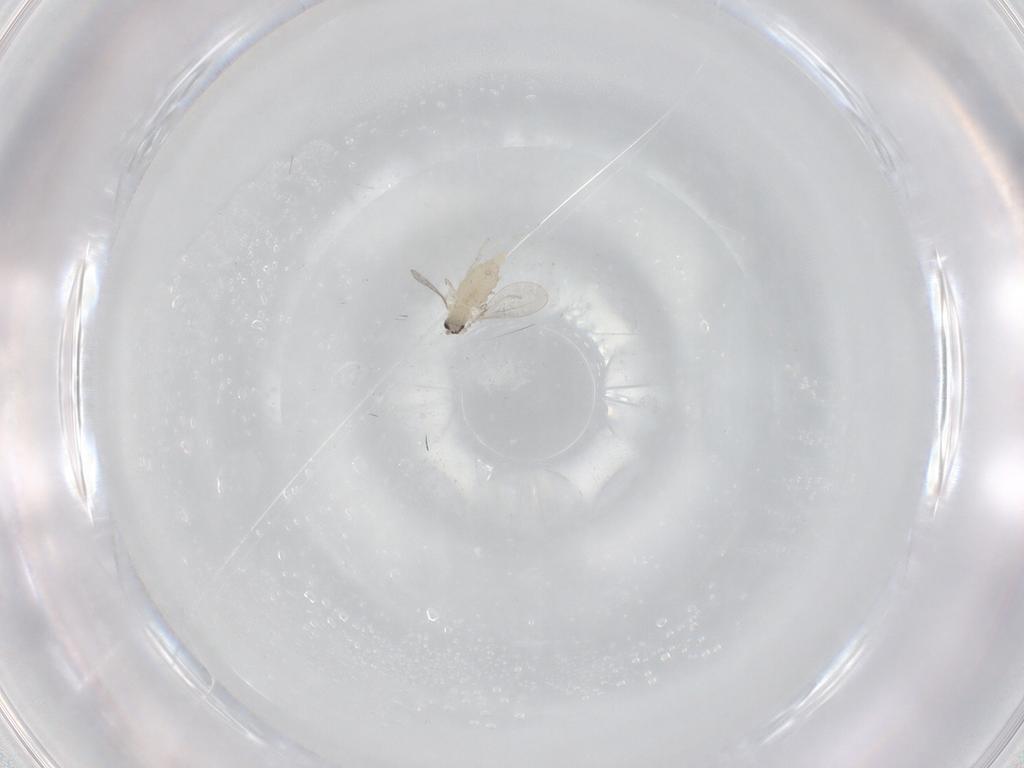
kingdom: Animalia
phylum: Arthropoda
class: Insecta
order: Diptera
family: Cecidomyiidae
